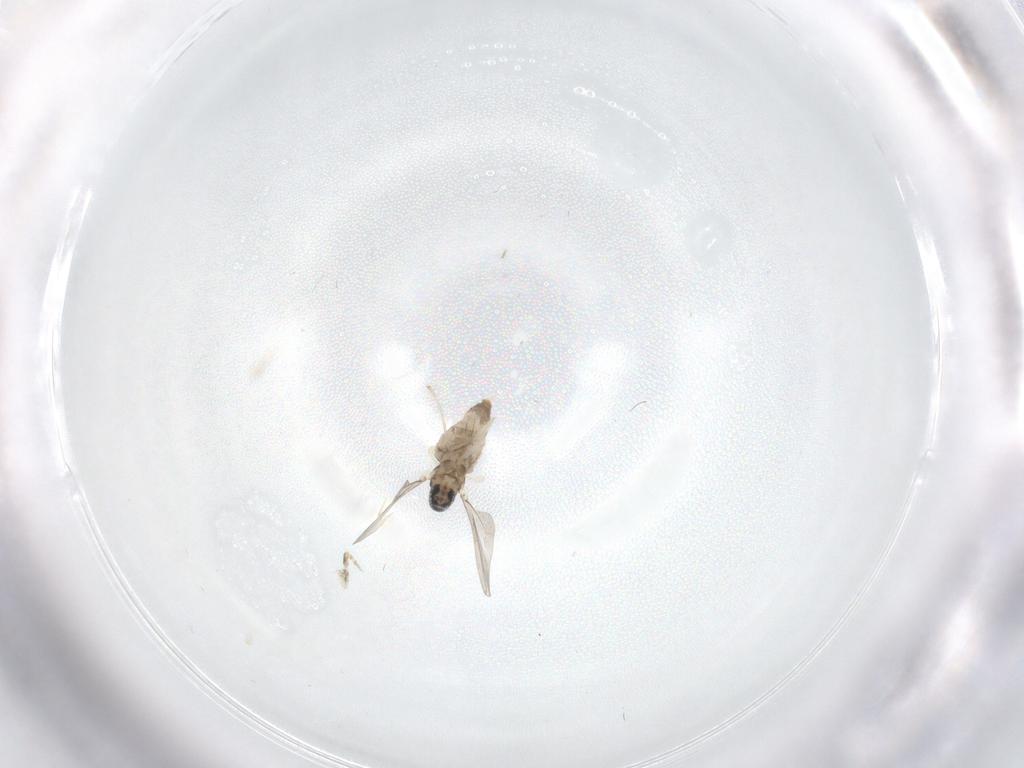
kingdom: Animalia
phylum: Arthropoda
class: Insecta
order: Diptera
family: Cecidomyiidae
